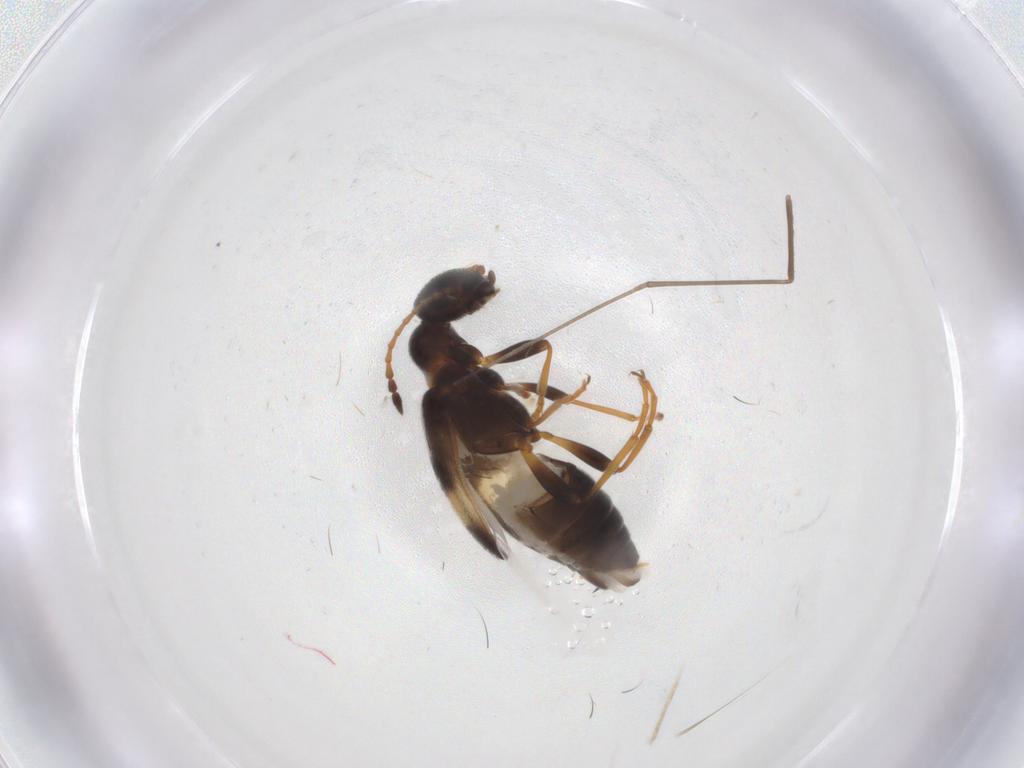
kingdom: Animalia
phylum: Arthropoda
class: Insecta
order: Coleoptera
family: Anthicidae
